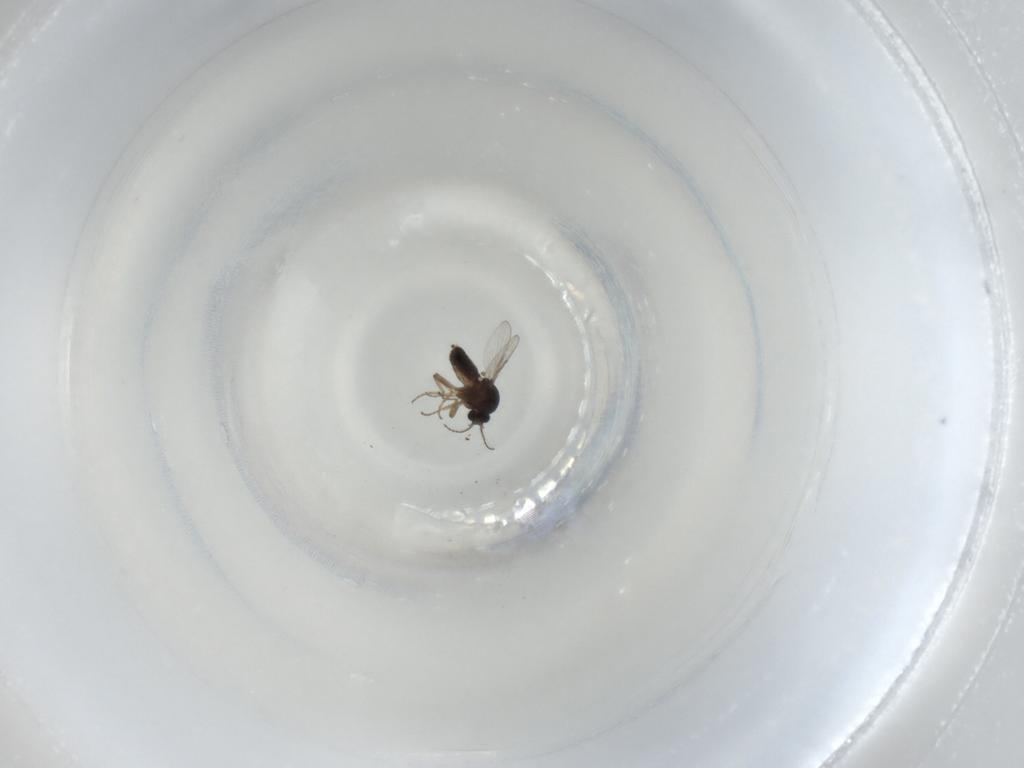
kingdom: Animalia
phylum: Arthropoda
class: Insecta
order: Diptera
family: Ceratopogonidae
